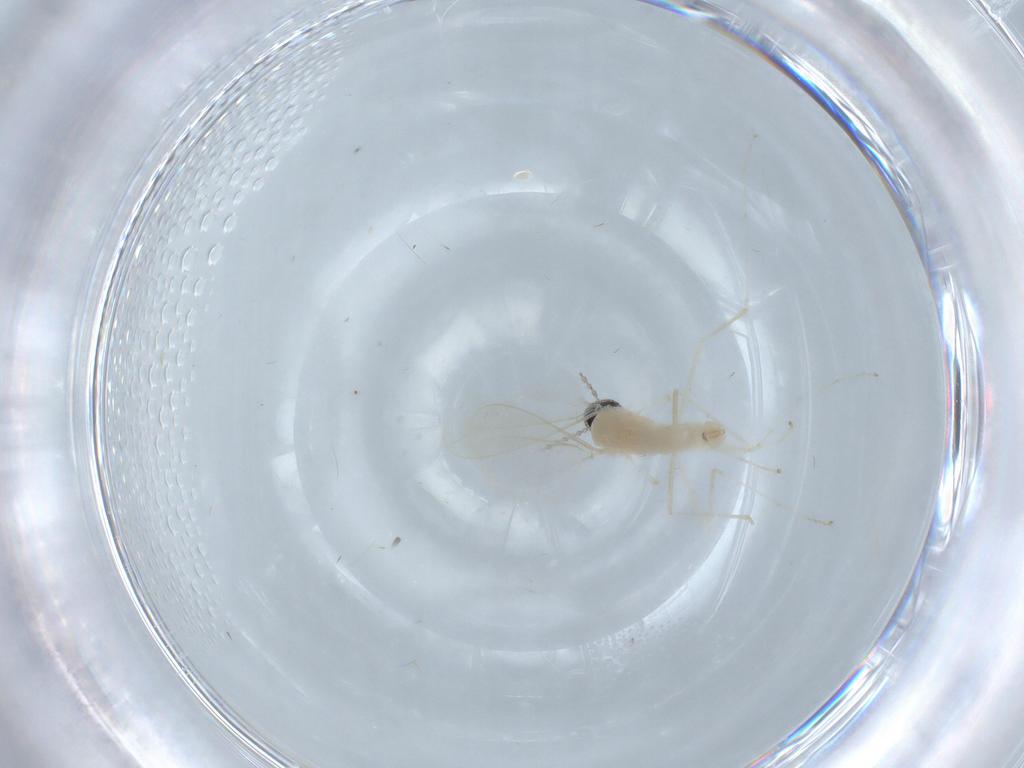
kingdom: Animalia
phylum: Arthropoda
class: Insecta
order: Diptera
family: Cecidomyiidae
